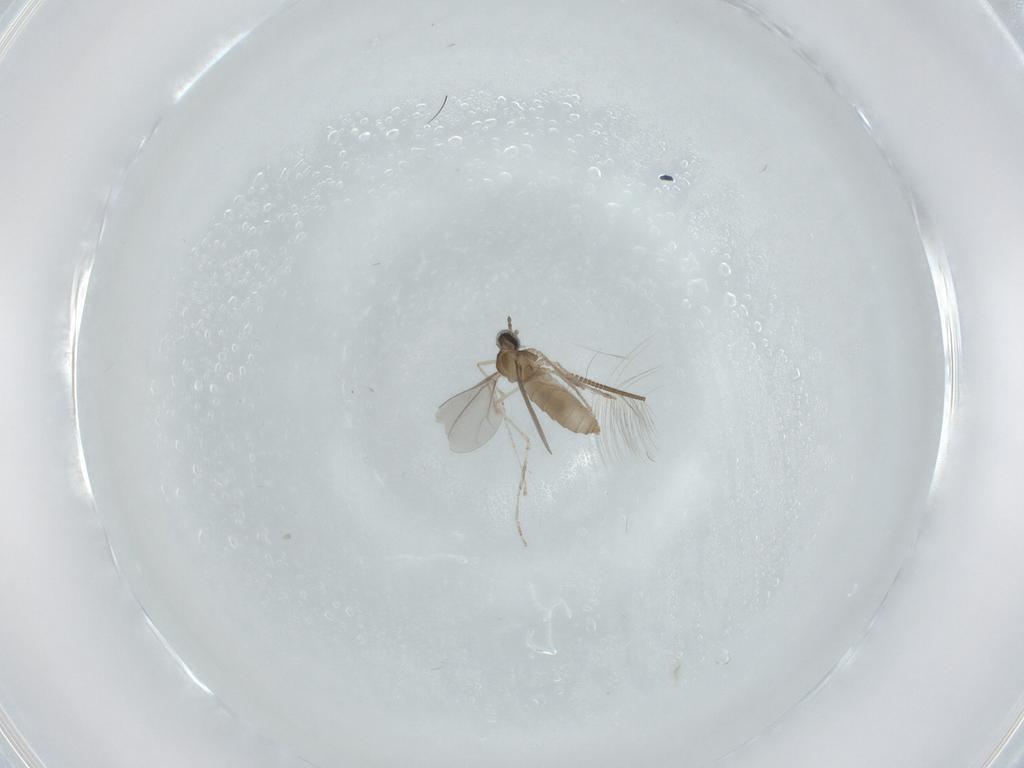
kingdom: Animalia
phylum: Arthropoda
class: Insecta
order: Diptera
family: Chironomidae
